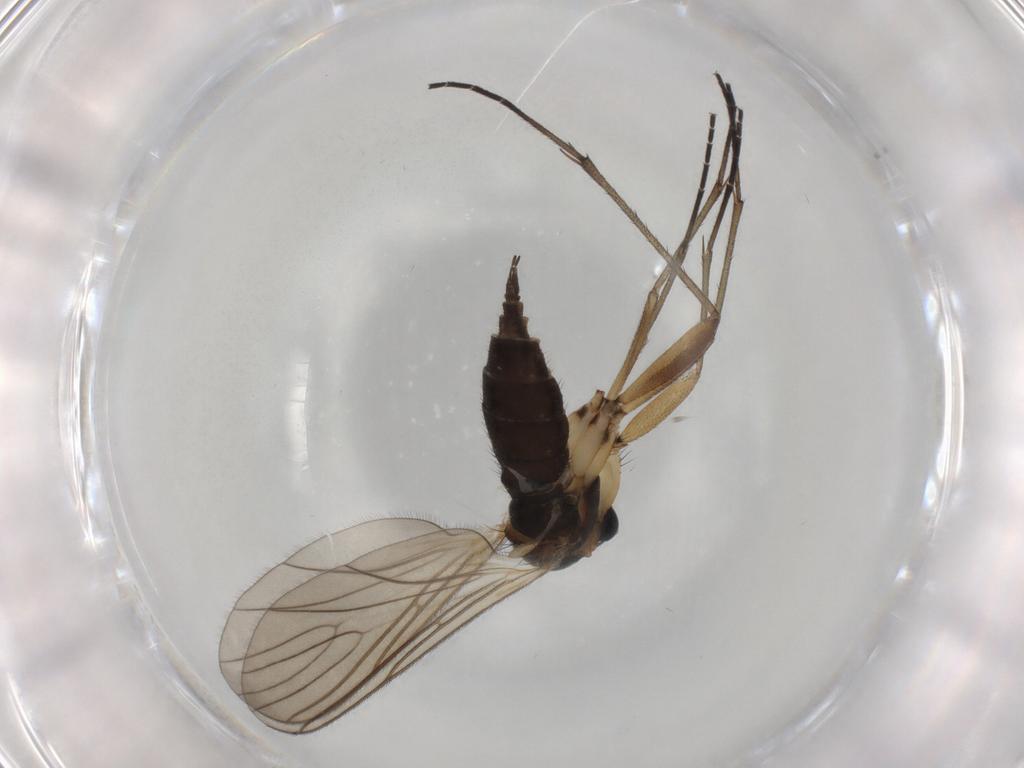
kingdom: Animalia
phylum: Arthropoda
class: Insecta
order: Diptera
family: Sciaridae
